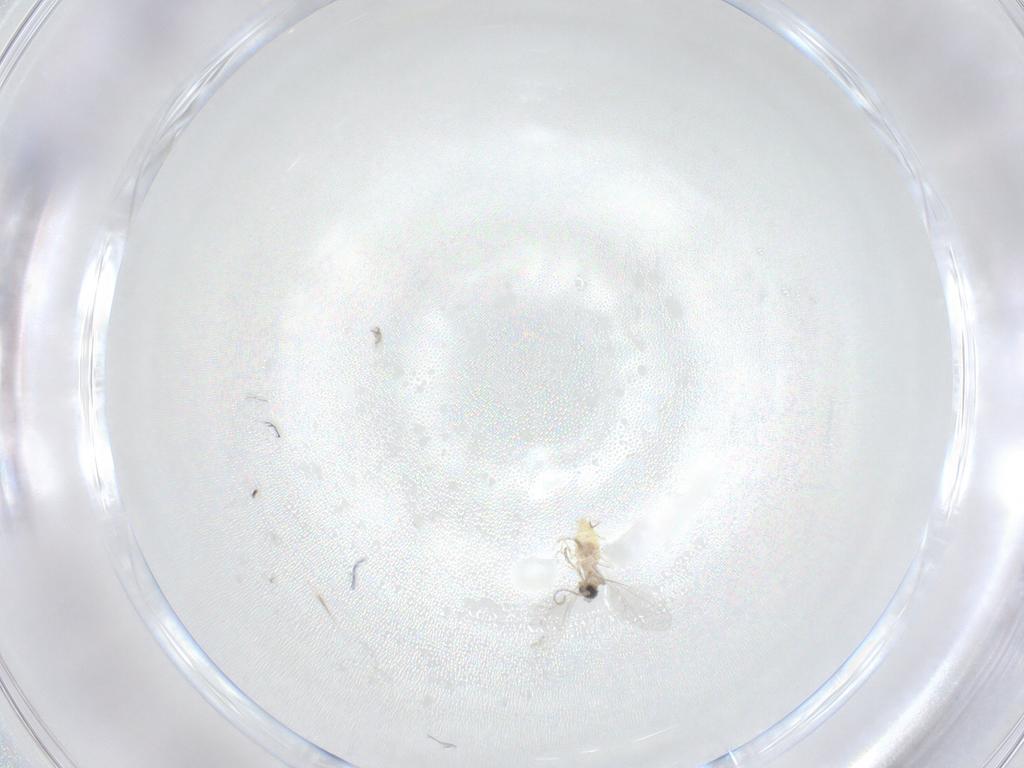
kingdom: Animalia
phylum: Arthropoda
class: Insecta
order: Diptera
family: Cecidomyiidae
